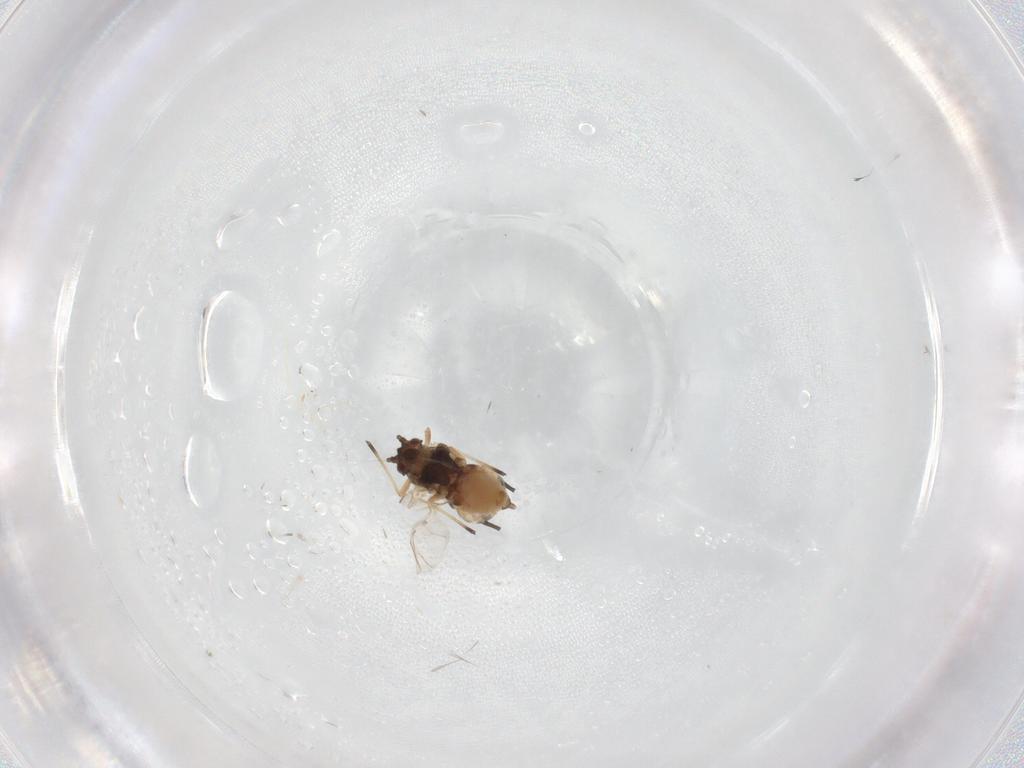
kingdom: Animalia
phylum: Arthropoda
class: Insecta
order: Hemiptera
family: Aphididae
